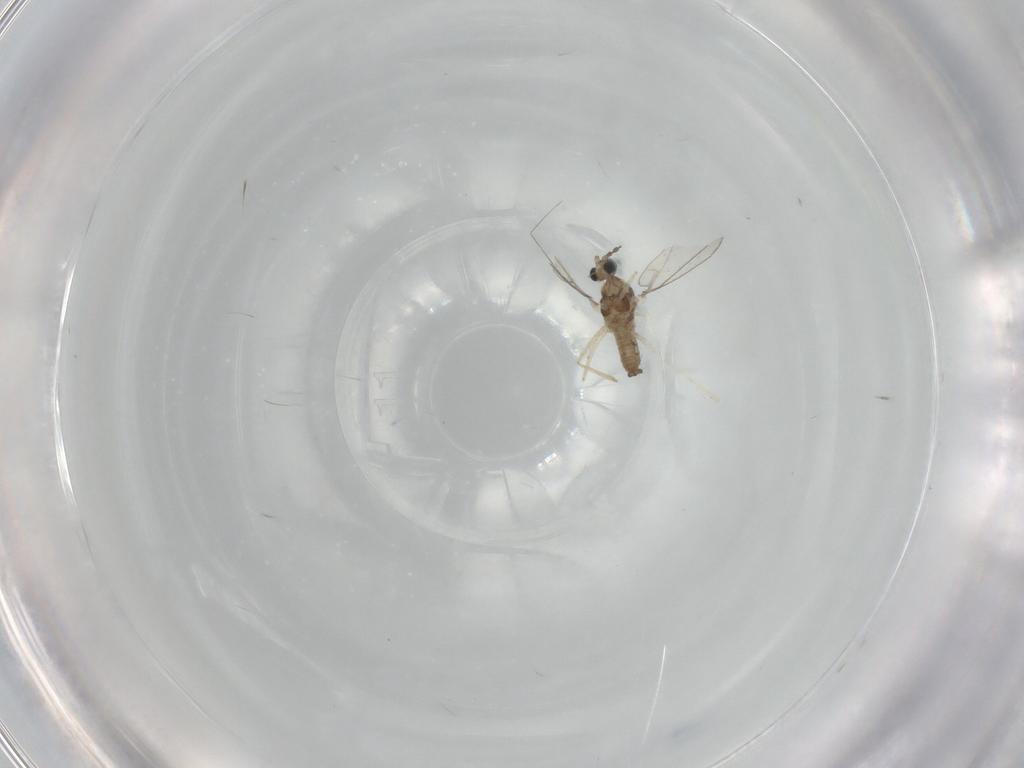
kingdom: Animalia
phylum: Arthropoda
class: Insecta
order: Diptera
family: Cecidomyiidae
